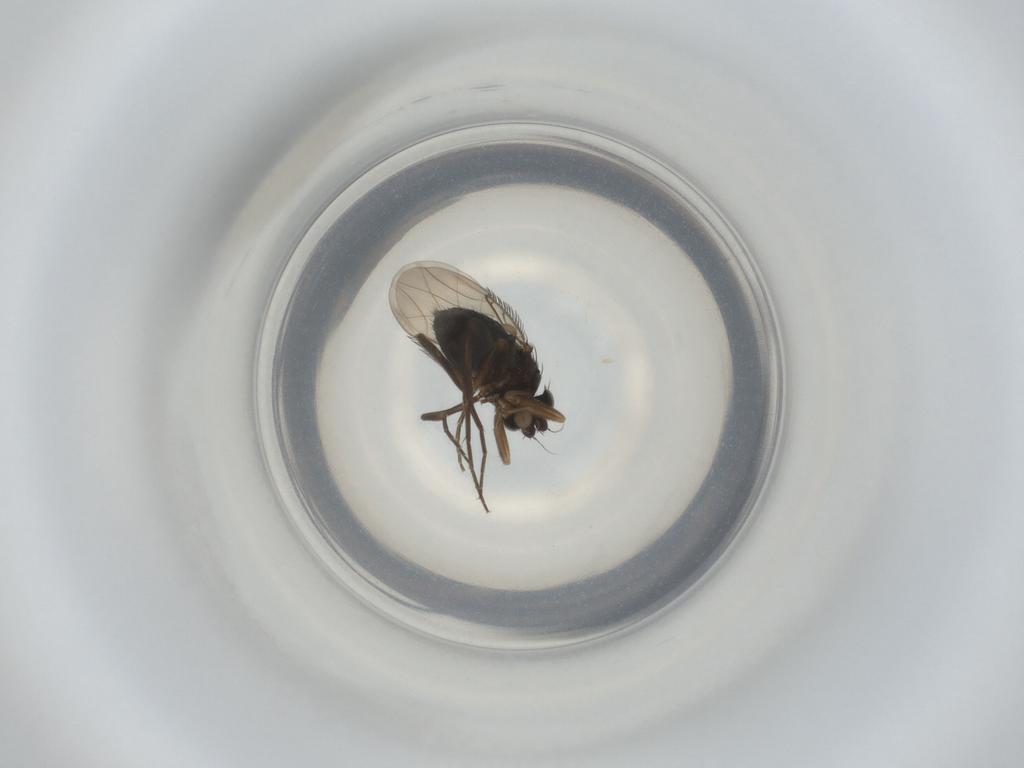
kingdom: Animalia
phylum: Arthropoda
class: Insecta
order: Diptera
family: Phoridae
